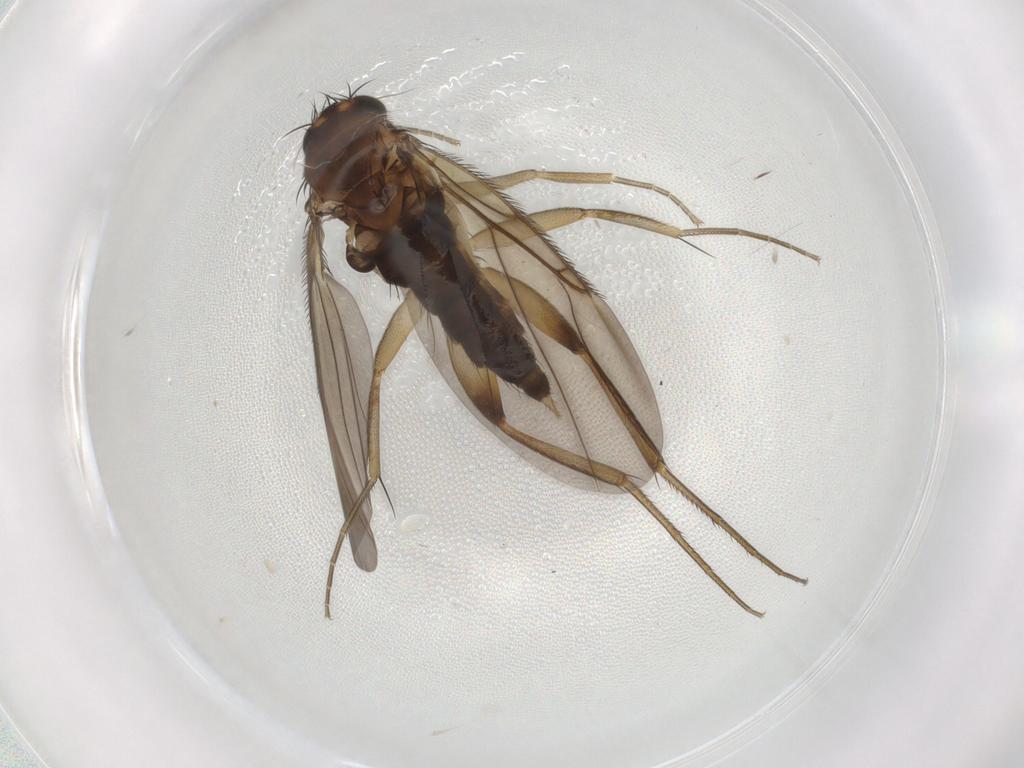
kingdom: Animalia
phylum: Arthropoda
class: Insecta
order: Diptera
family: Phoridae
